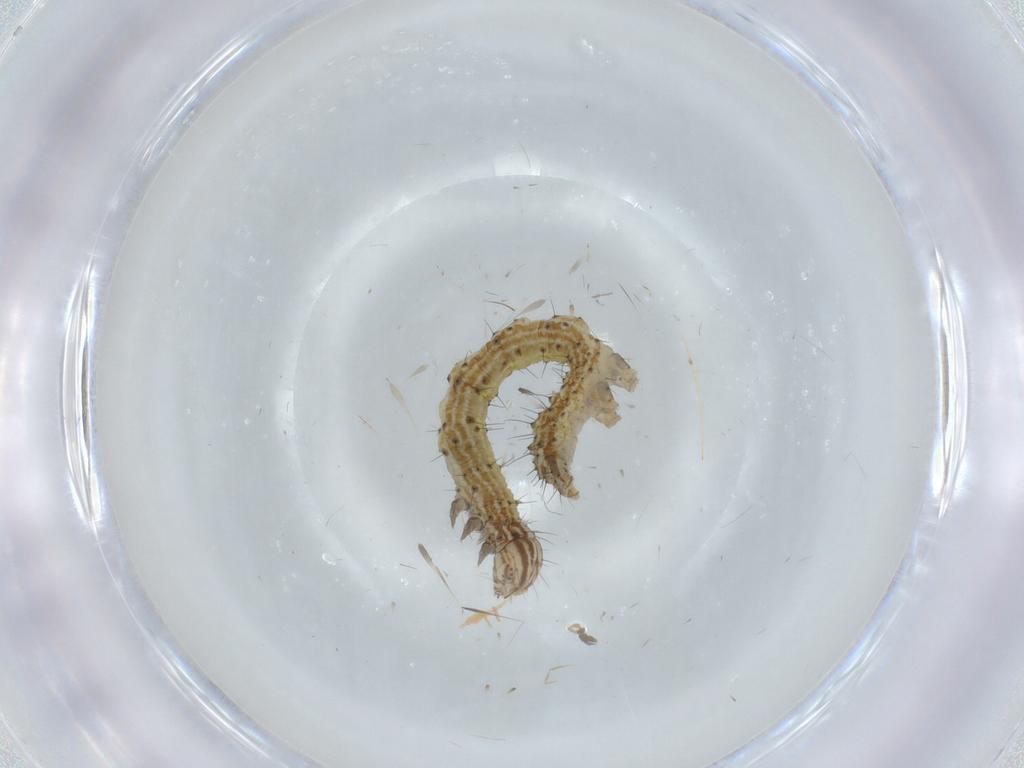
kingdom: Animalia
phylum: Arthropoda
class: Insecta
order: Lepidoptera
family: Erebidae
